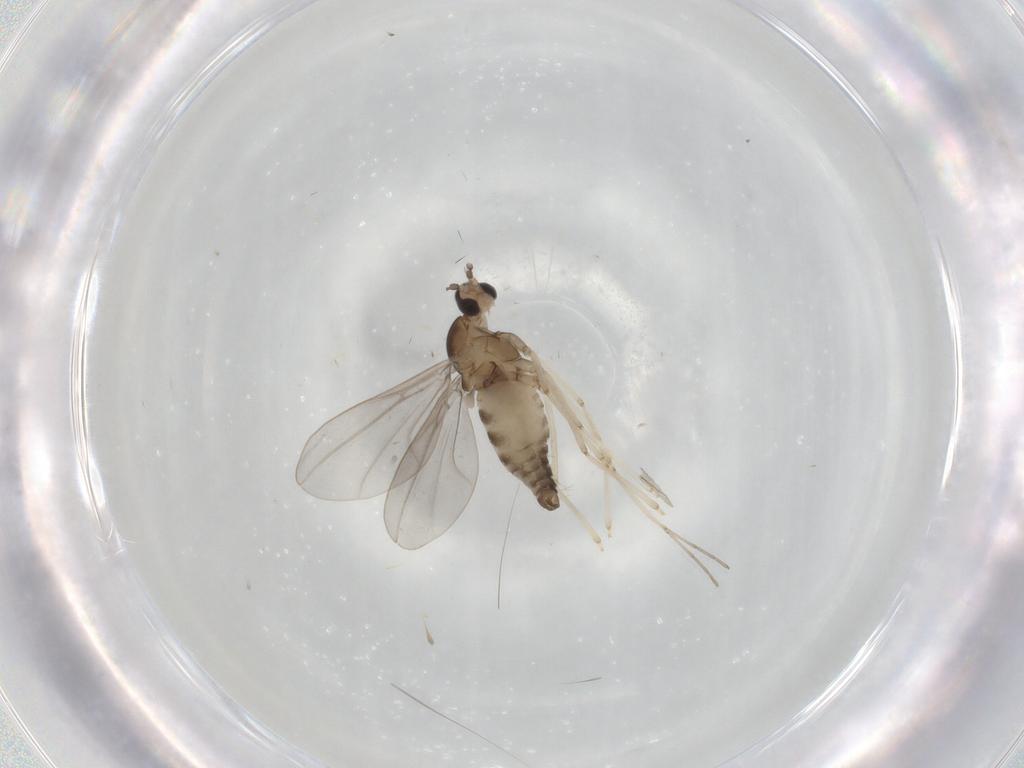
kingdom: Animalia
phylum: Arthropoda
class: Insecta
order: Diptera
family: Cecidomyiidae
